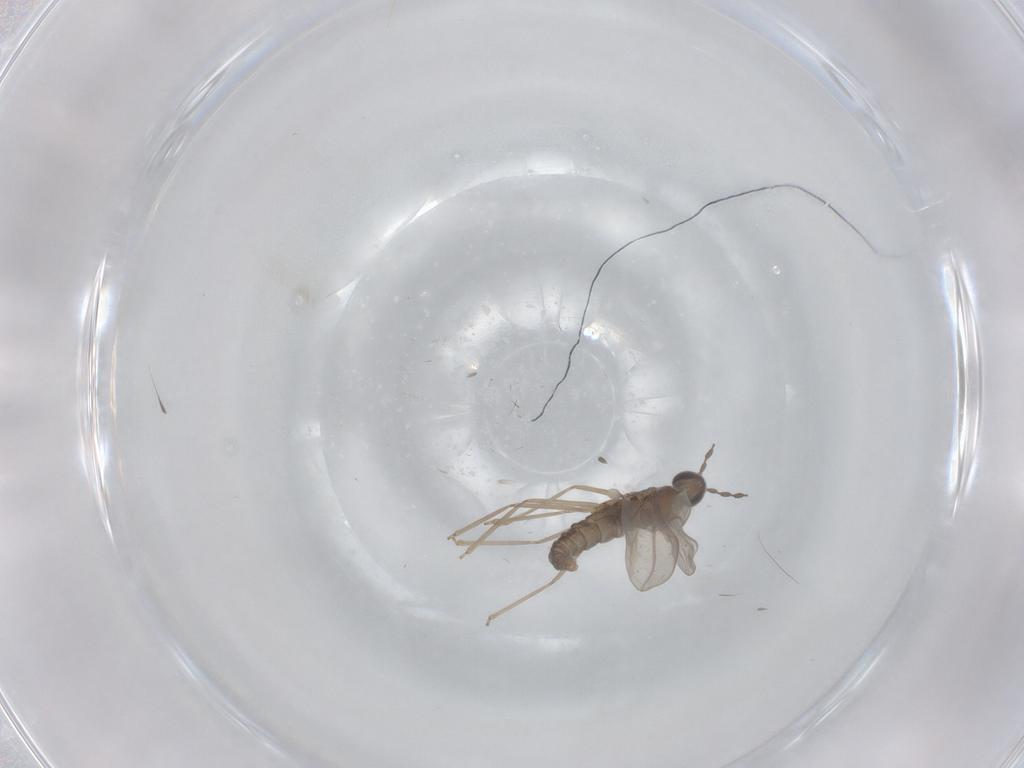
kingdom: Animalia
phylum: Arthropoda
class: Insecta
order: Diptera
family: Cecidomyiidae
